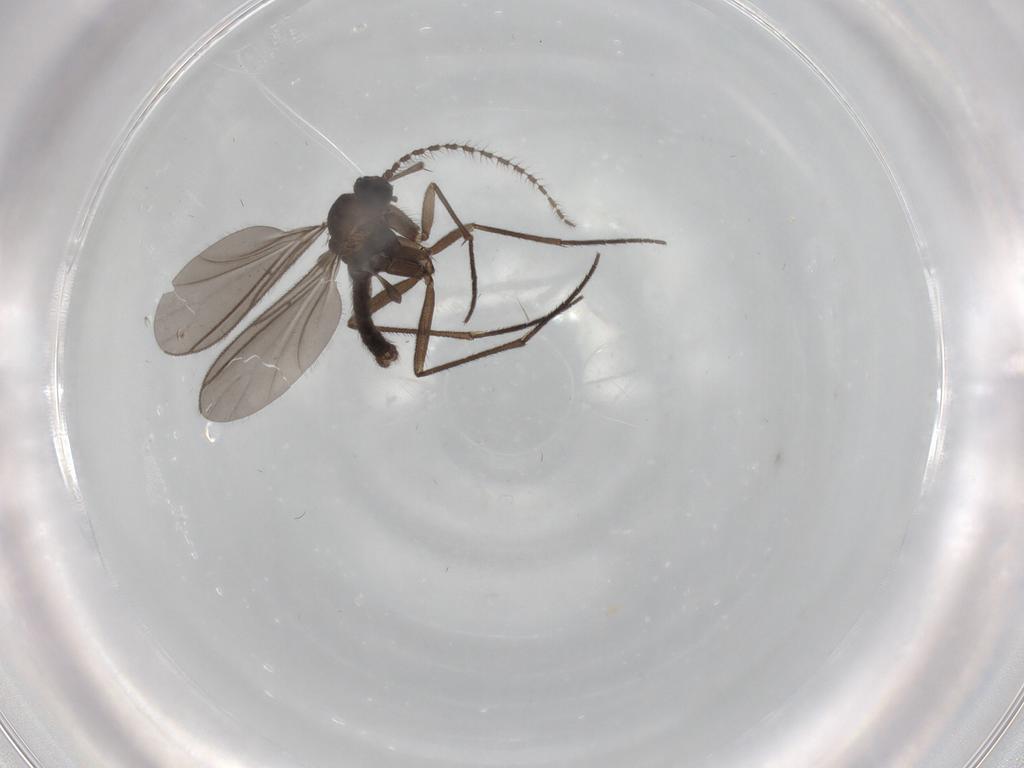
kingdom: Animalia
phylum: Arthropoda
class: Insecta
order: Diptera
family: Sciaridae
